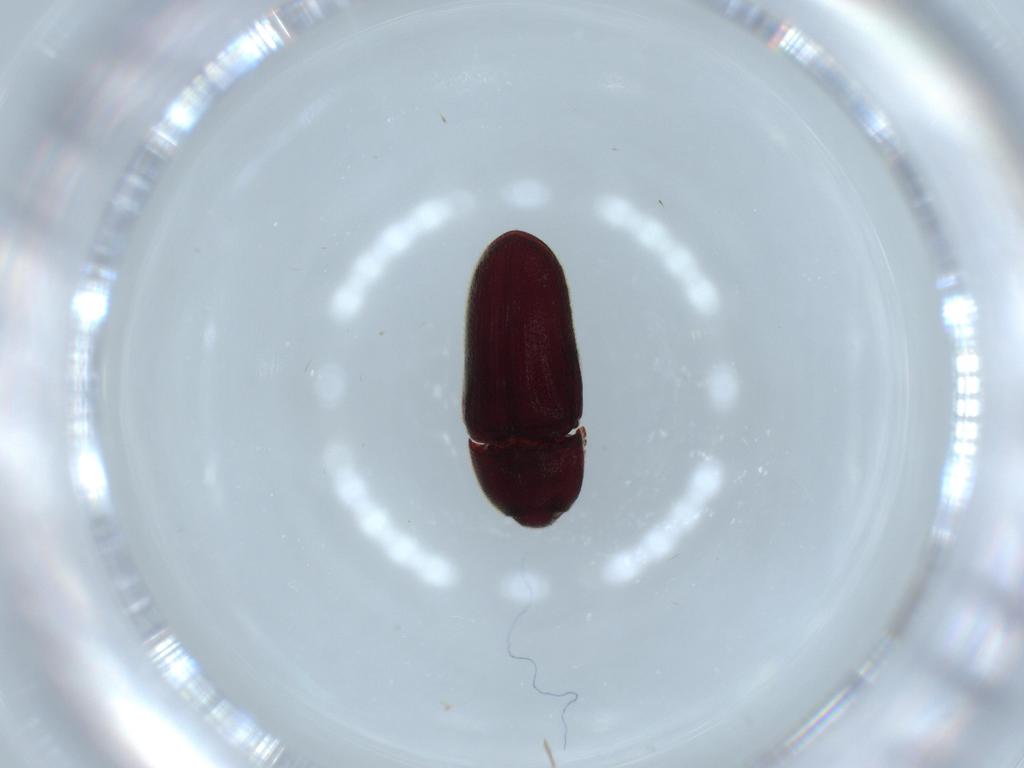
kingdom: Animalia
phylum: Arthropoda
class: Insecta
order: Coleoptera
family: Throscidae
